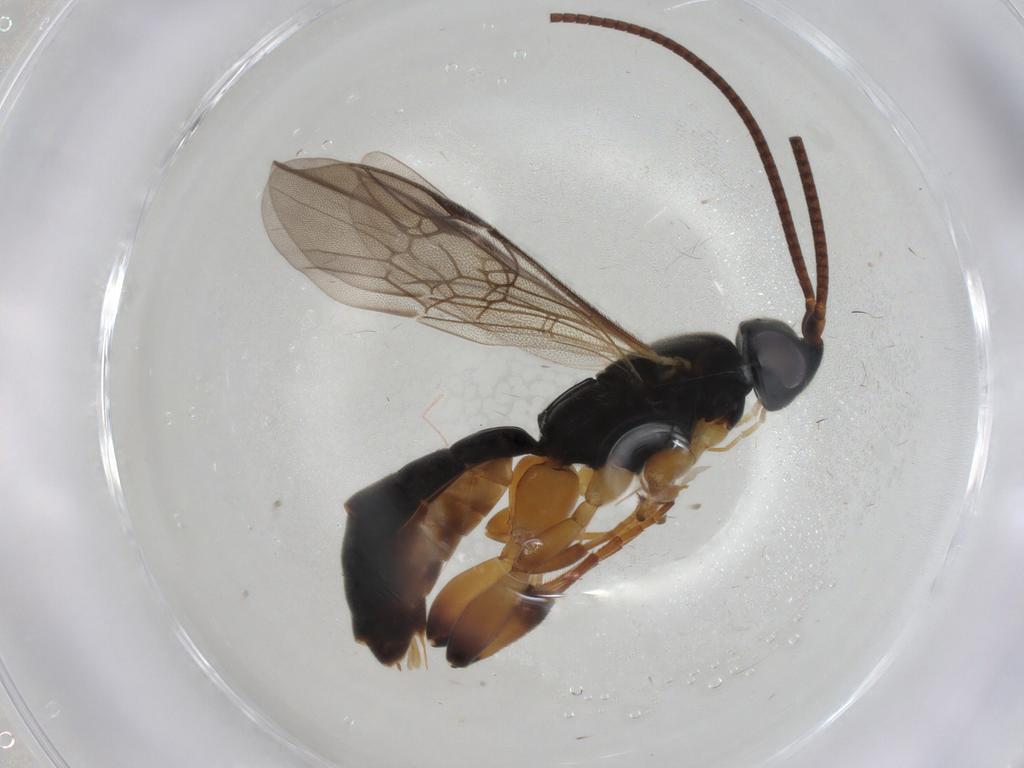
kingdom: Animalia
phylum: Arthropoda
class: Insecta
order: Hymenoptera
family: Ichneumonidae
